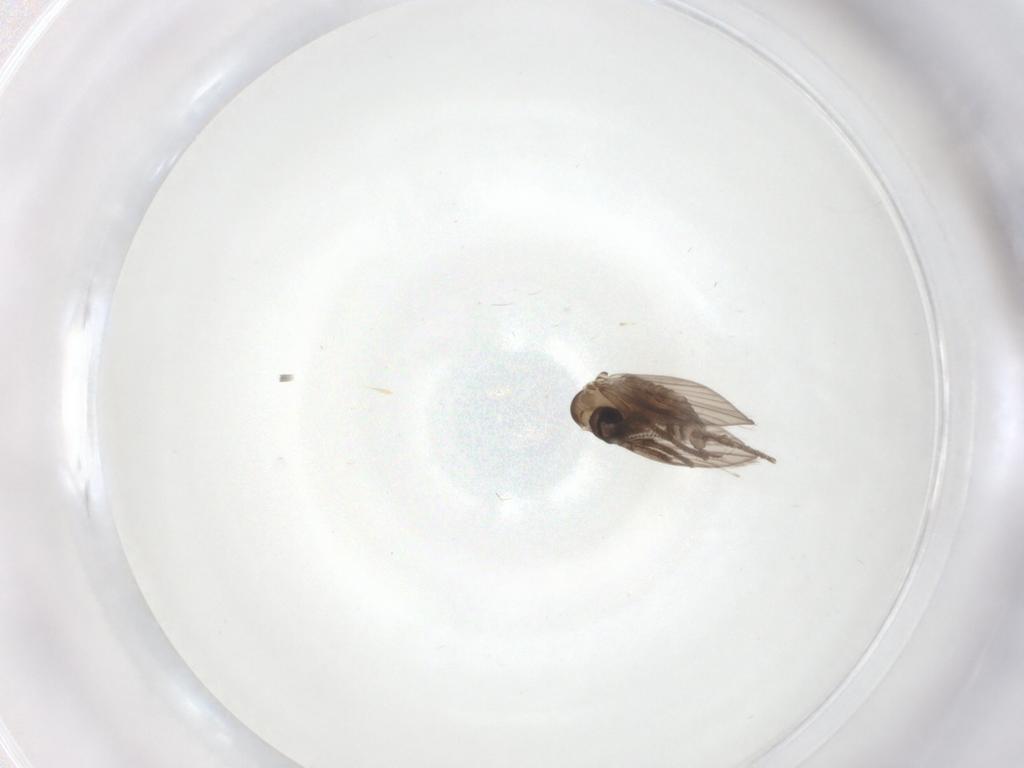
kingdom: Animalia
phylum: Arthropoda
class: Insecta
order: Diptera
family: Psychodidae
